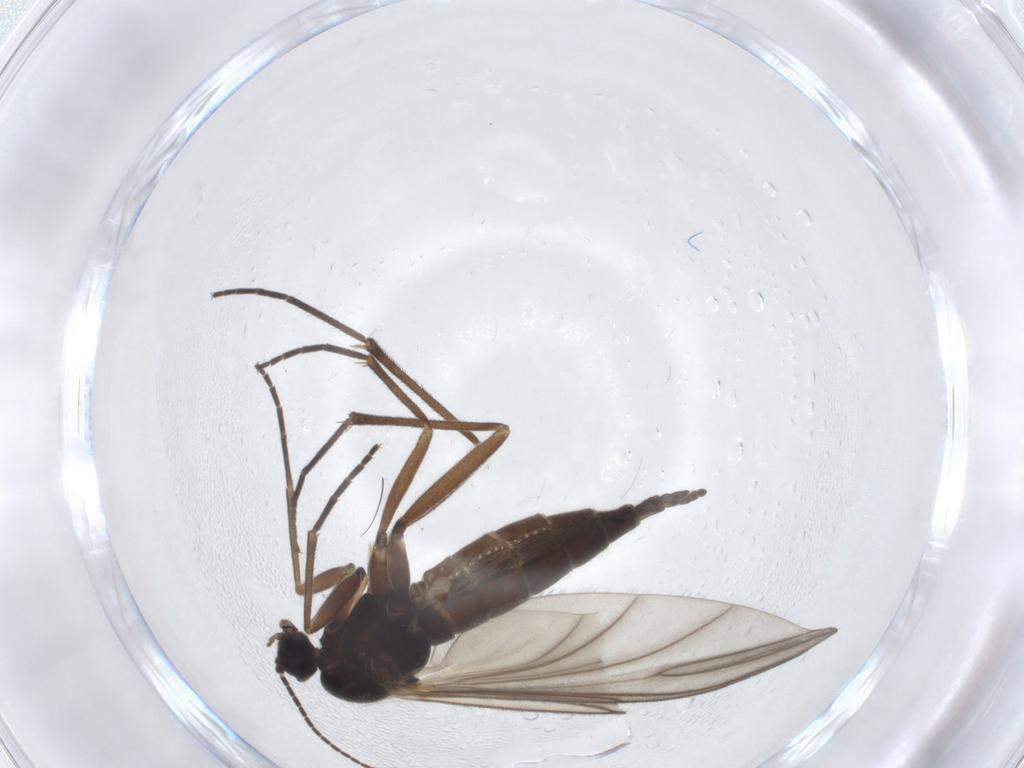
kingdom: Animalia
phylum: Arthropoda
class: Insecta
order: Diptera
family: Sciaridae
